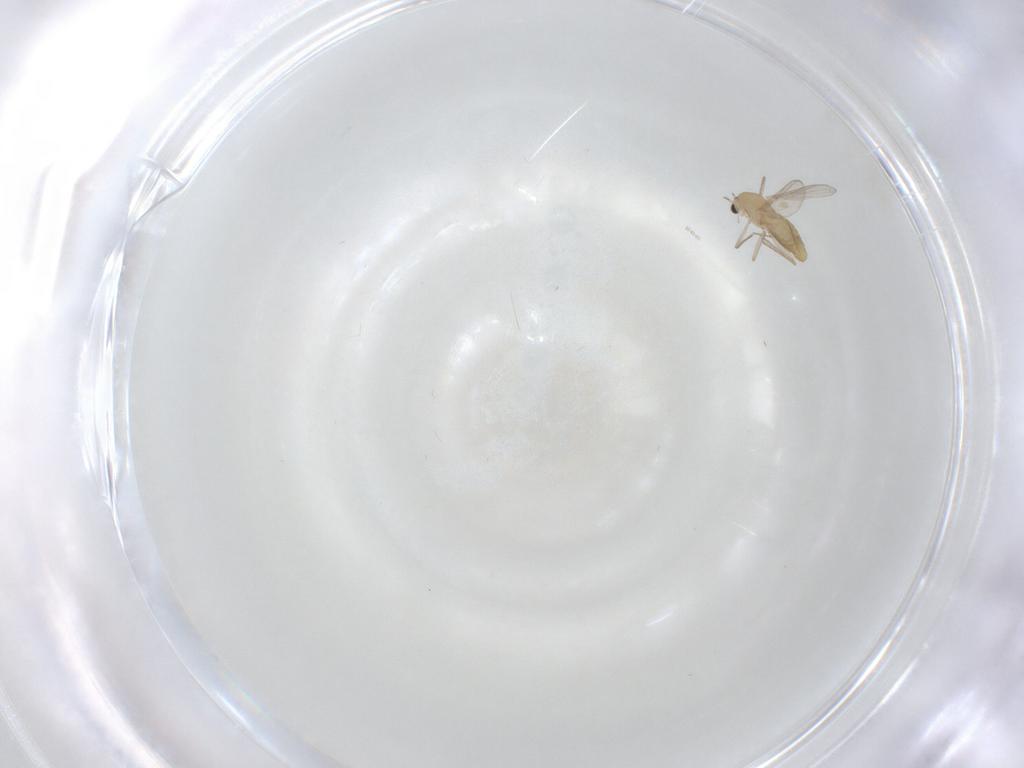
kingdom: Animalia
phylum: Arthropoda
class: Insecta
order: Diptera
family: Chironomidae
